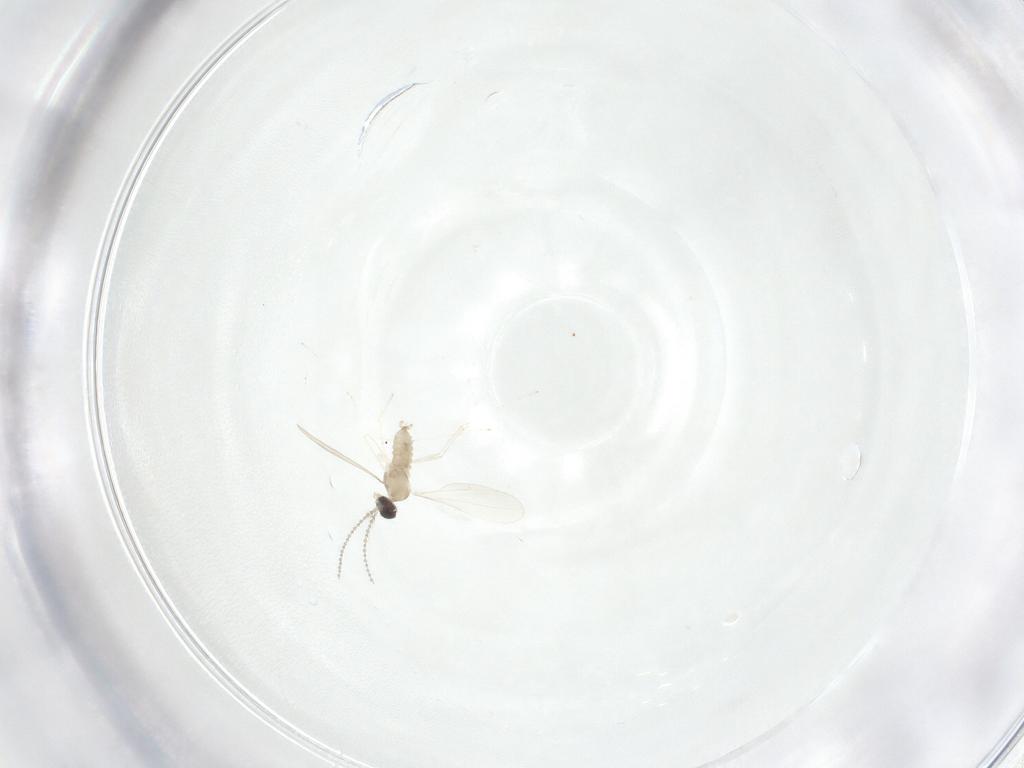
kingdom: Animalia
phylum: Arthropoda
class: Insecta
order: Diptera
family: Cecidomyiidae
